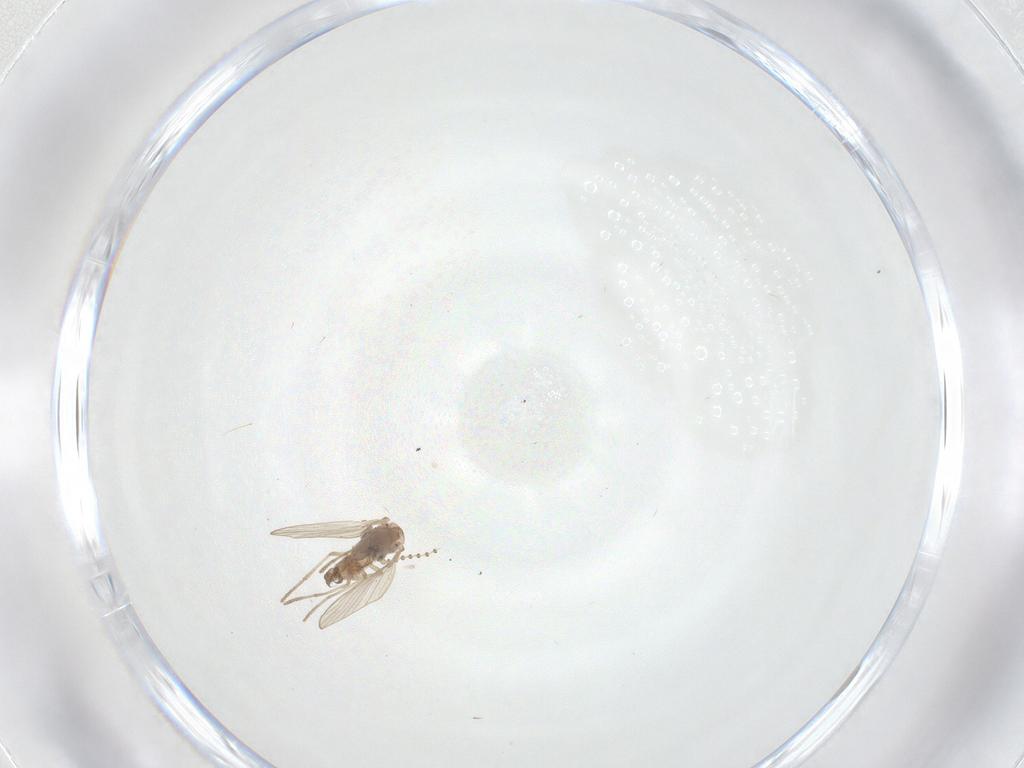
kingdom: Animalia
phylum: Arthropoda
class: Insecta
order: Diptera
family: Psychodidae
